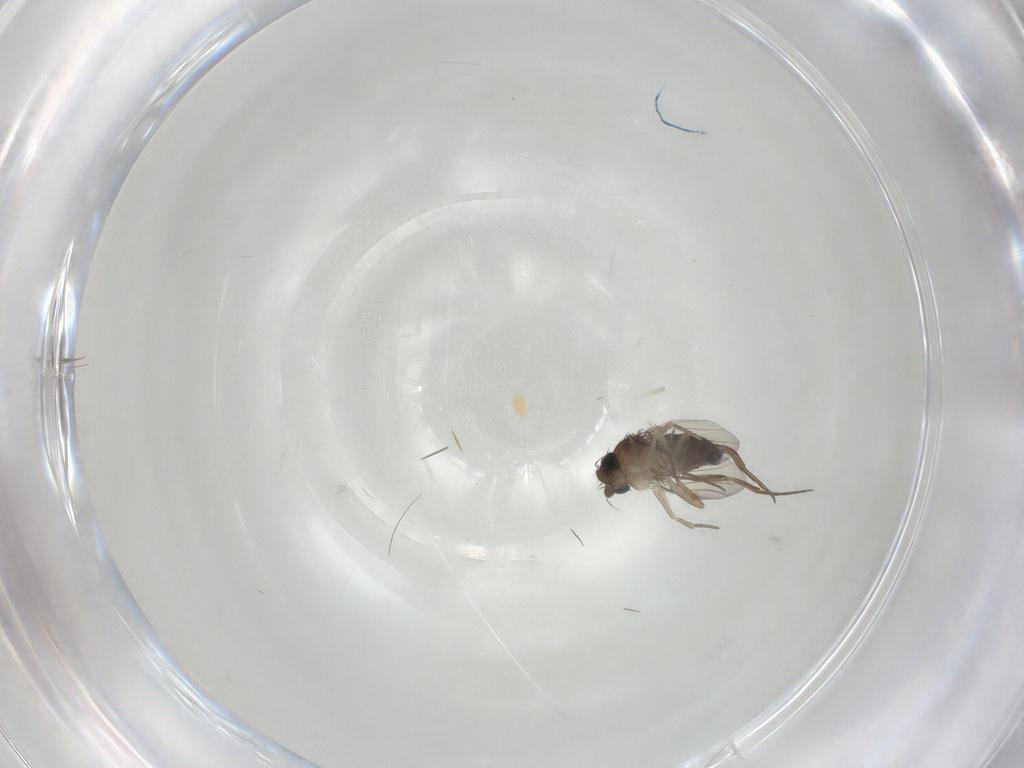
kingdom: Animalia
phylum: Arthropoda
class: Insecta
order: Diptera
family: Phoridae
